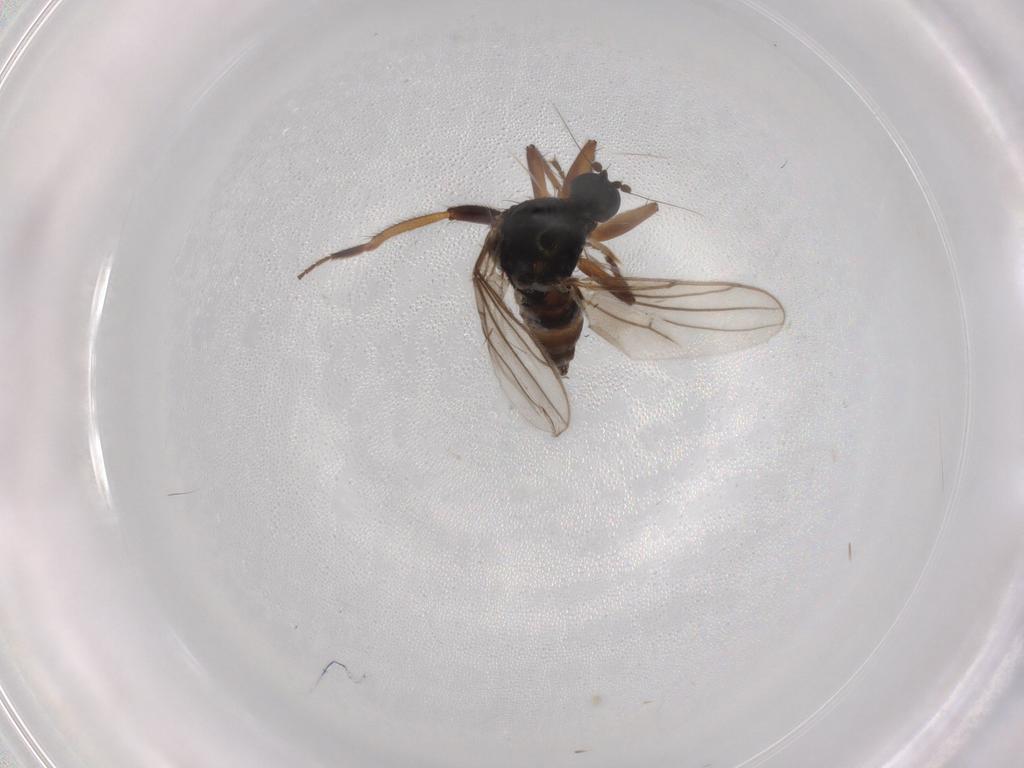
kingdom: Animalia
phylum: Arthropoda
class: Insecta
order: Diptera
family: Hybotidae
